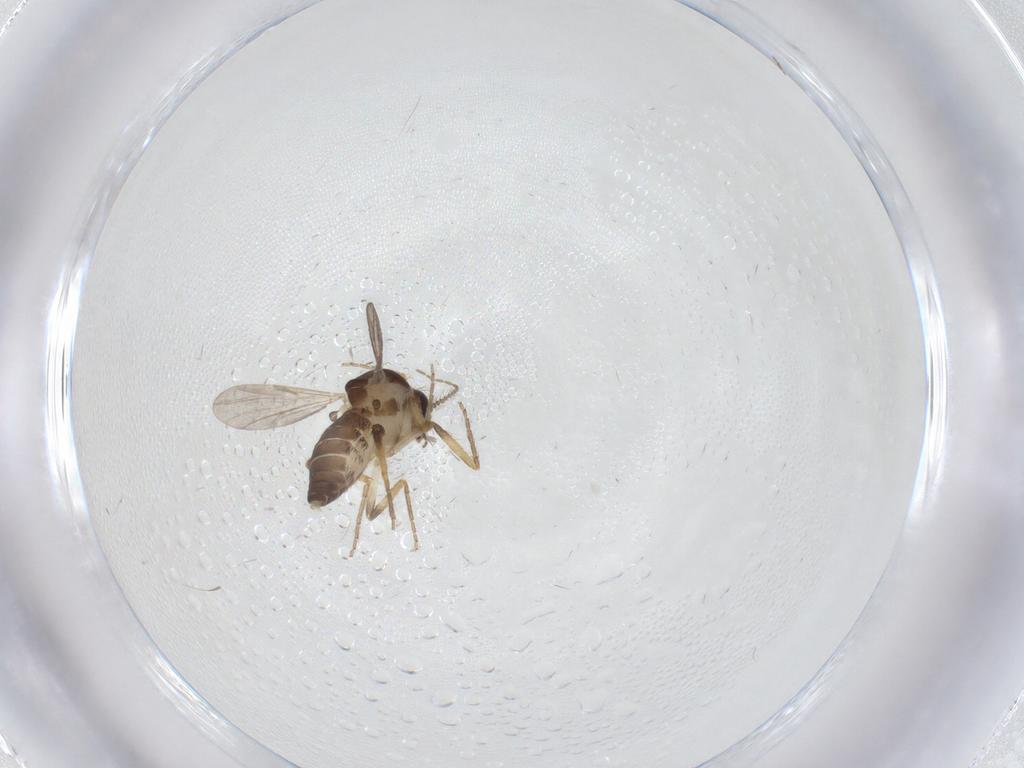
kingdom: Animalia
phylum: Arthropoda
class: Insecta
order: Diptera
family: Ceratopogonidae
